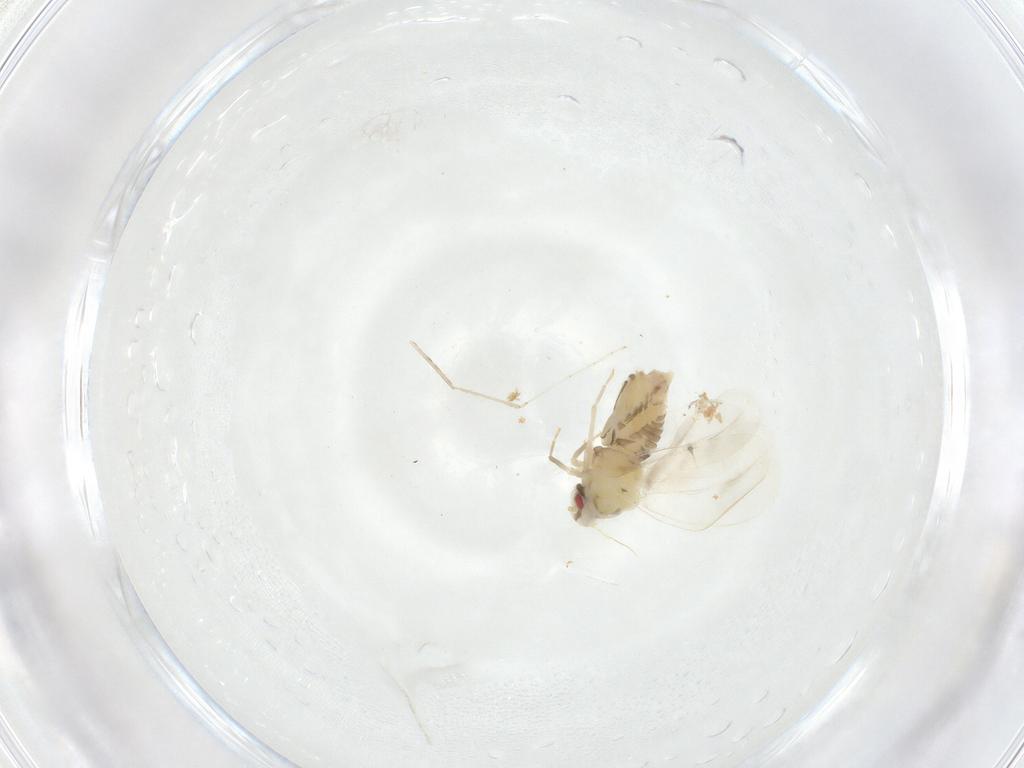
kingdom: Animalia
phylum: Arthropoda
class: Insecta
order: Hemiptera
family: Aleyrodidae
